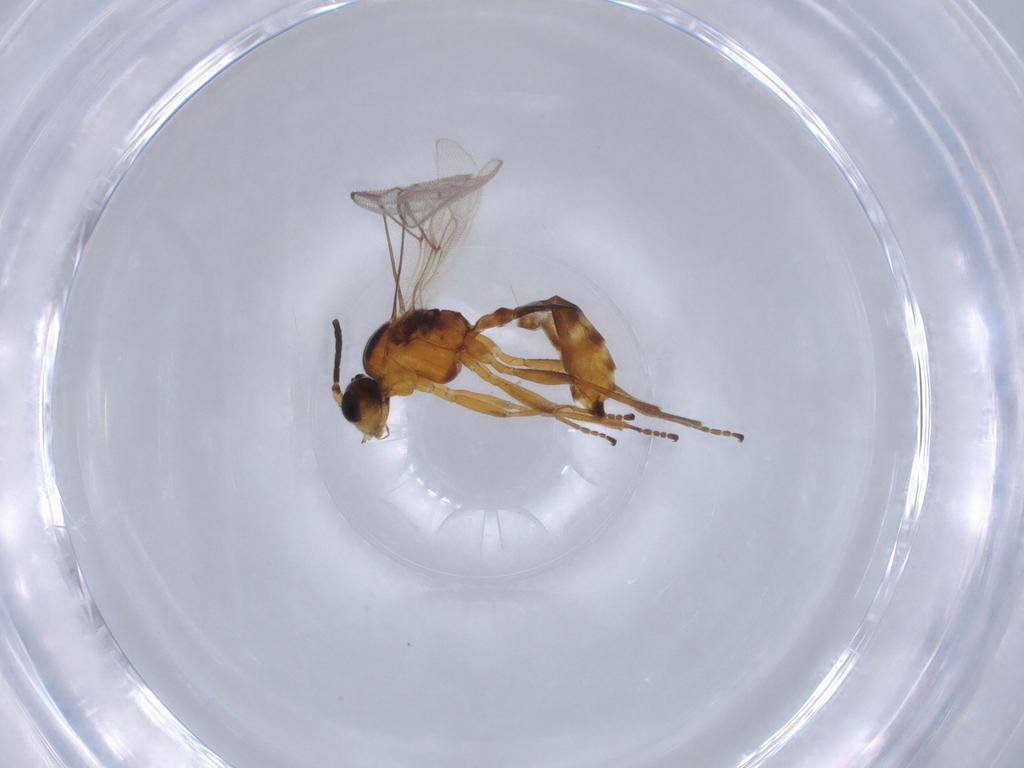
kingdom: Animalia
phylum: Arthropoda
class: Insecta
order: Hymenoptera
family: Braconidae
